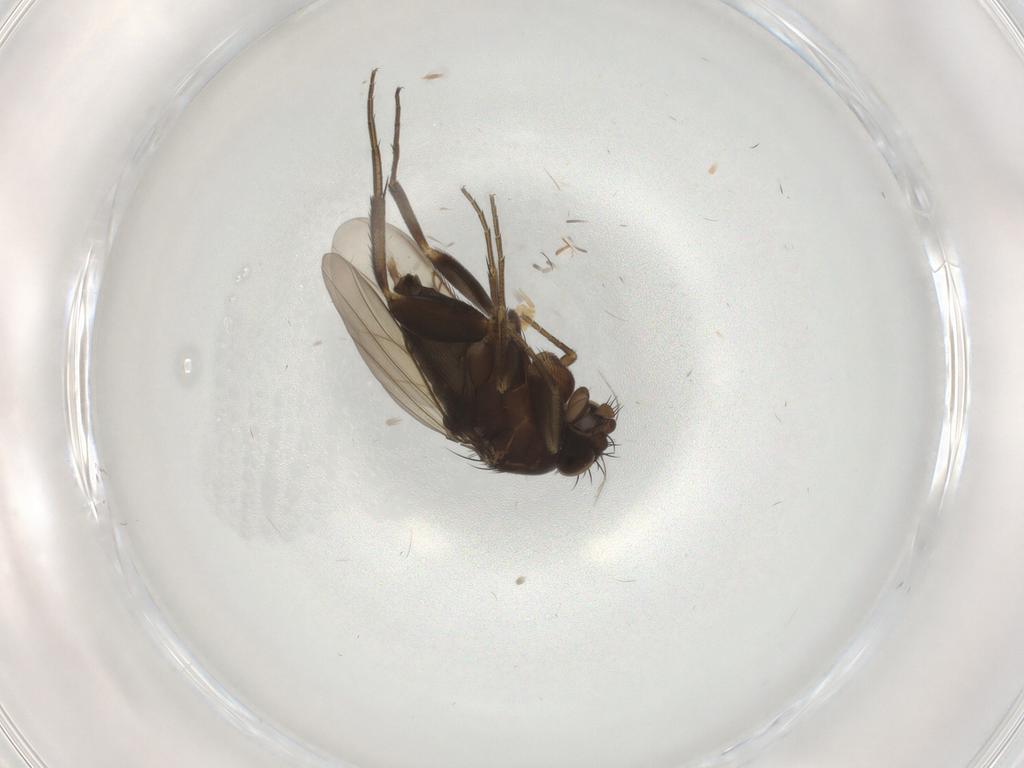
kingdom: Animalia
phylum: Arthropoda
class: Insecta
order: Diptera
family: Phoridae
